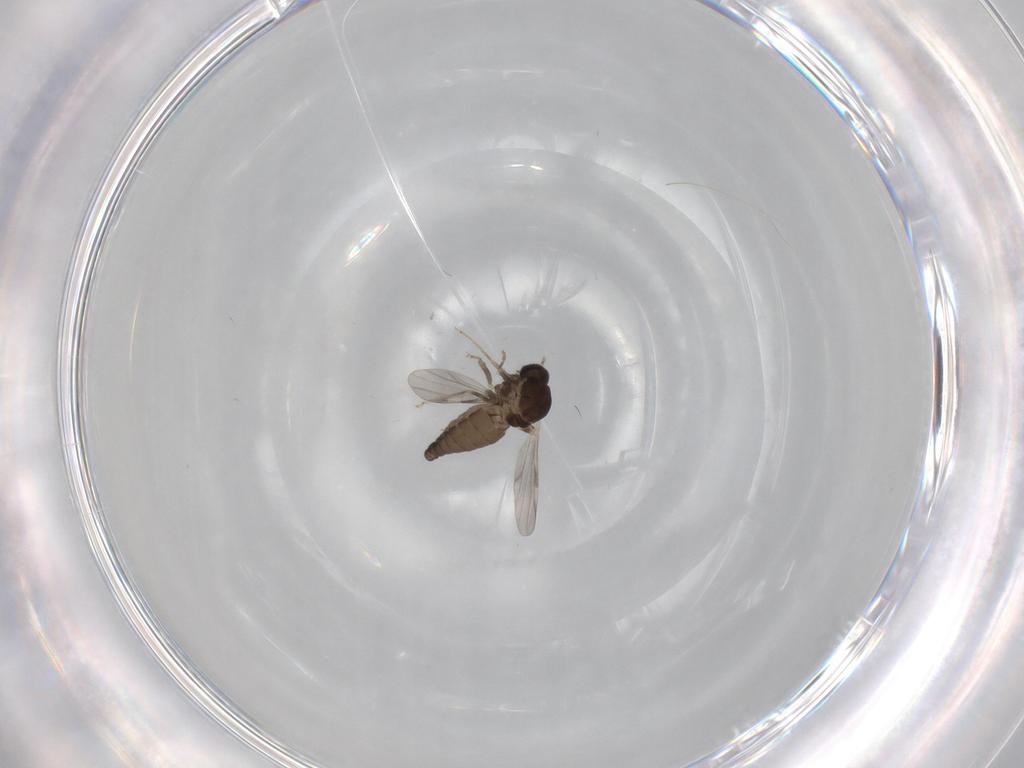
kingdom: Animalia
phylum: Arthropoda
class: Insecta
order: Diptera
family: Ceratopogonidae
